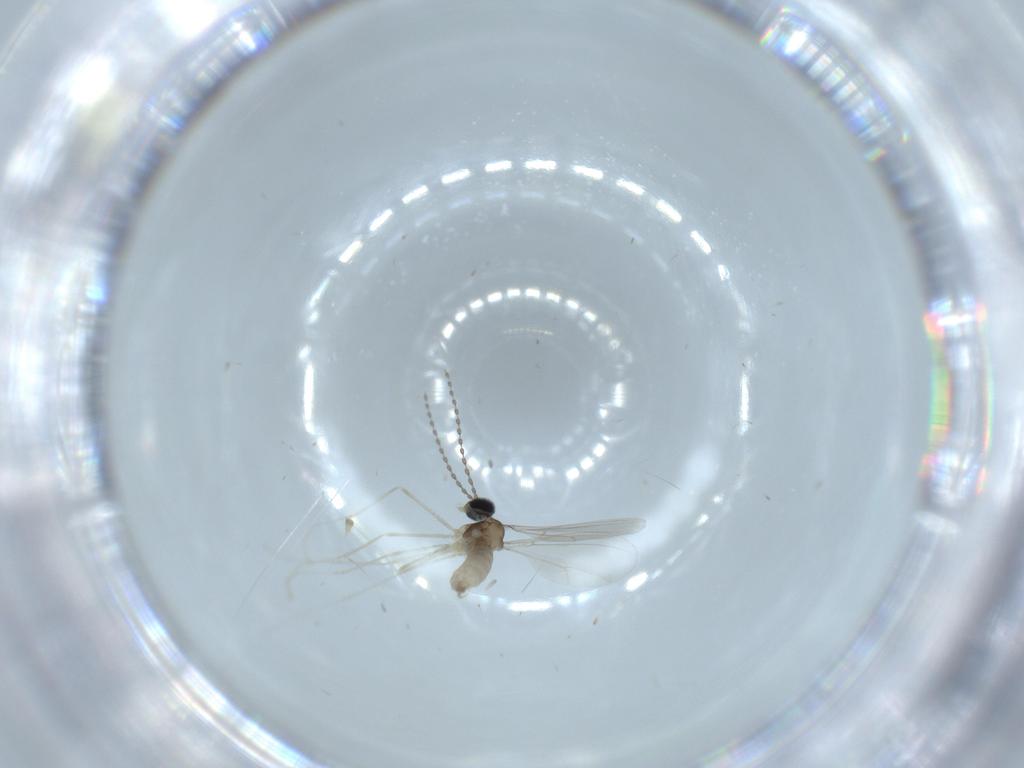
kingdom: Animalia
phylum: Arthropoda
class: Insecta
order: Diptera
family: Cecidomyiidae
